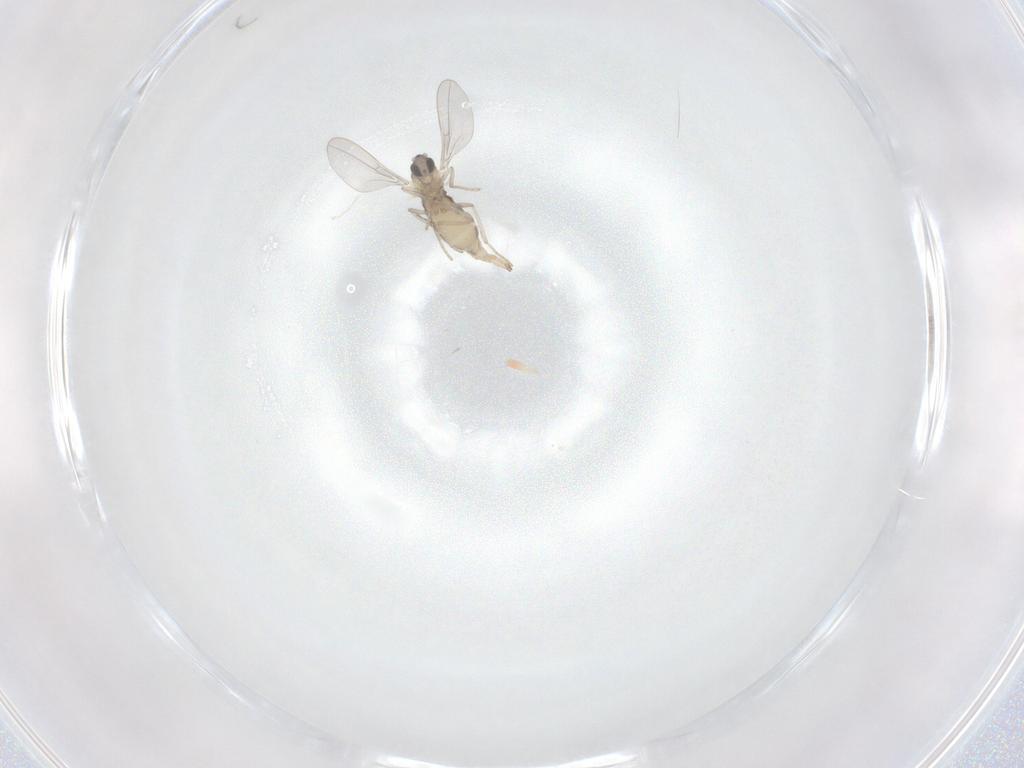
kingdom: Animalia
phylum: Arthropoda
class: Insecta
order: Diptera
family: Cecidomyiidae
